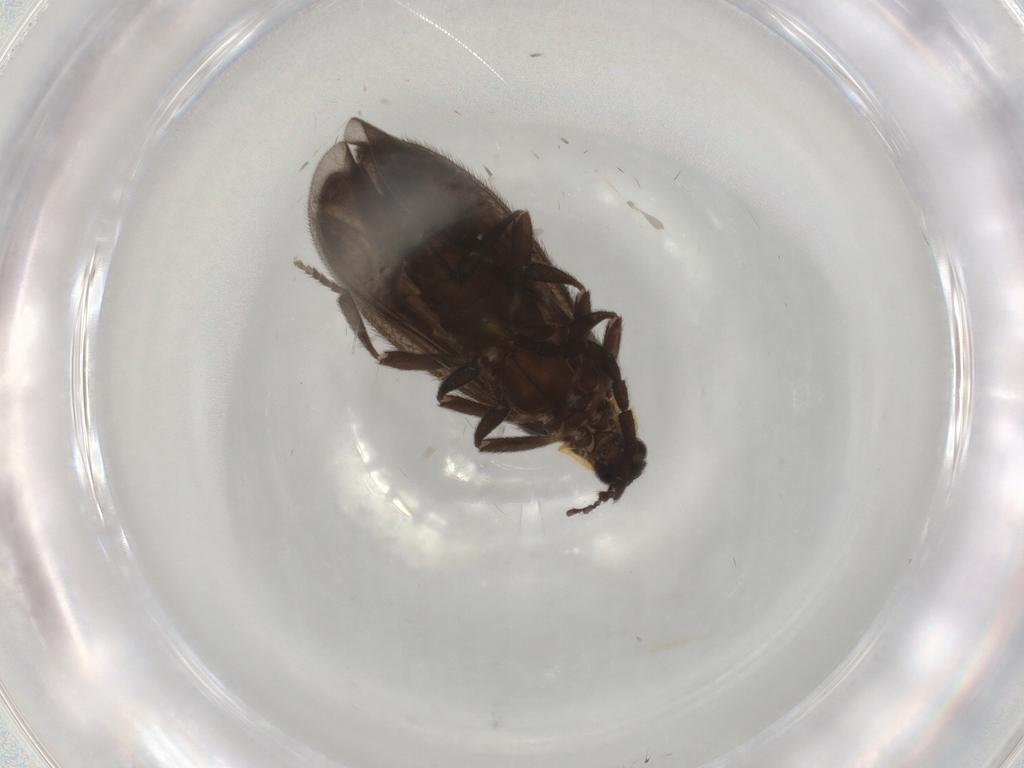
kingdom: Animalia
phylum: Arthropoda
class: Insecta
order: Coleoptera
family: Lycidae
